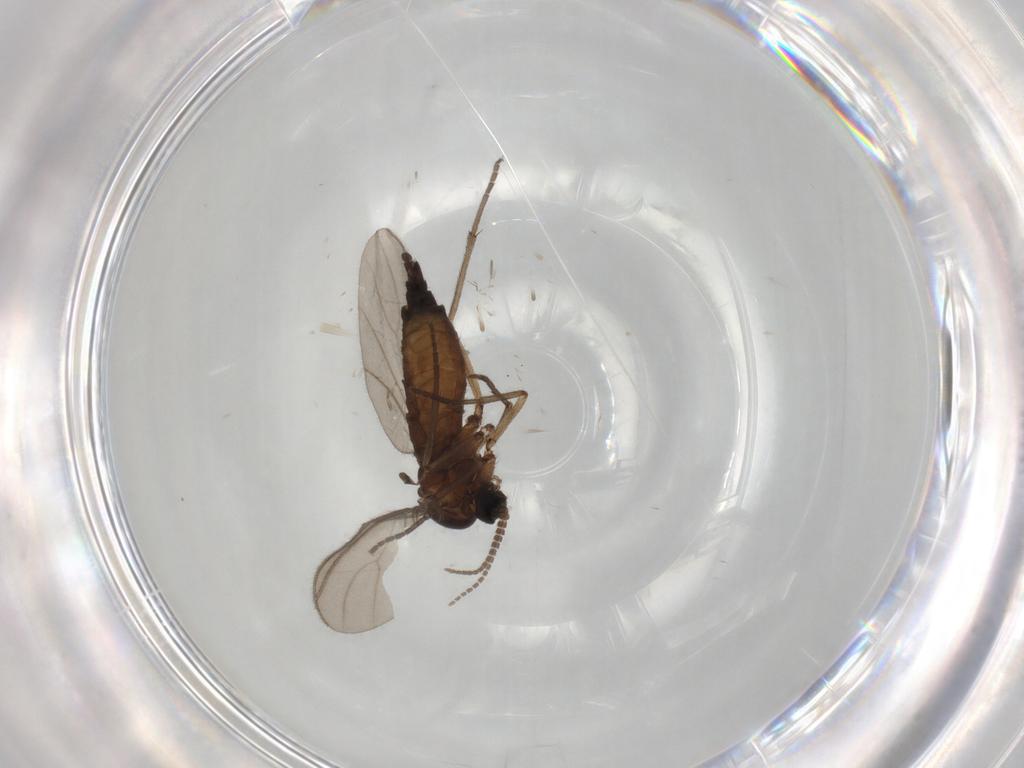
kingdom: Animalia
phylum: Arthropoda
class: Insecta
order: Diptera
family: Sciaridae
